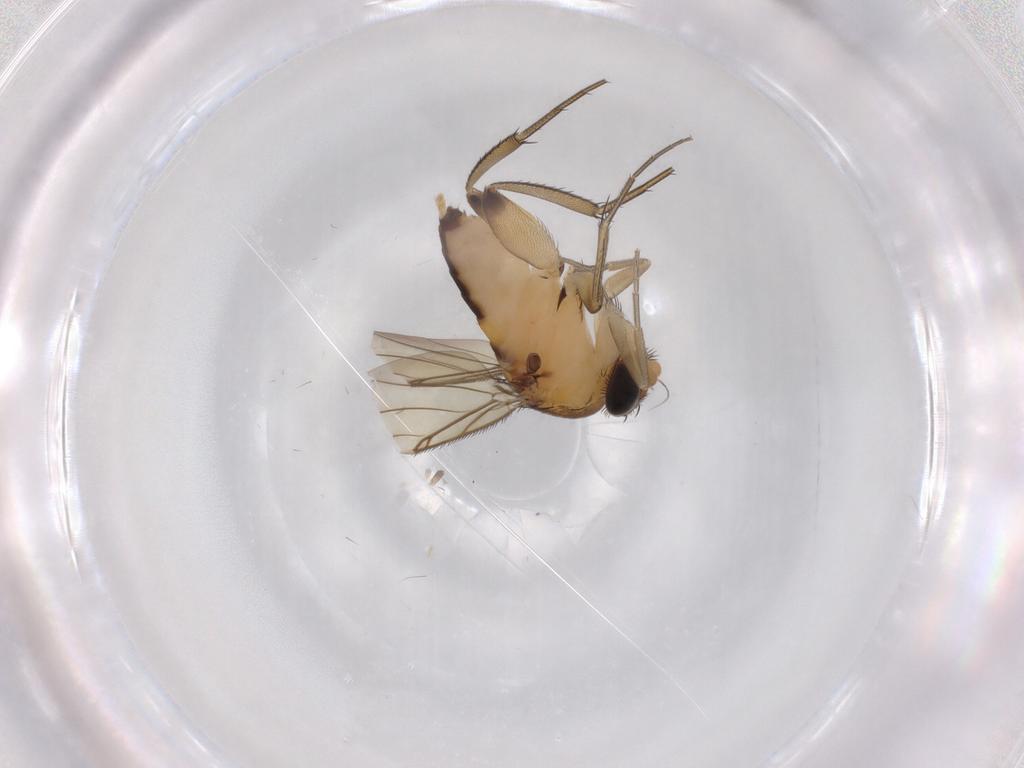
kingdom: Animalia
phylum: Arthropoda
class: Insecta
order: Diptera
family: Phoridae
